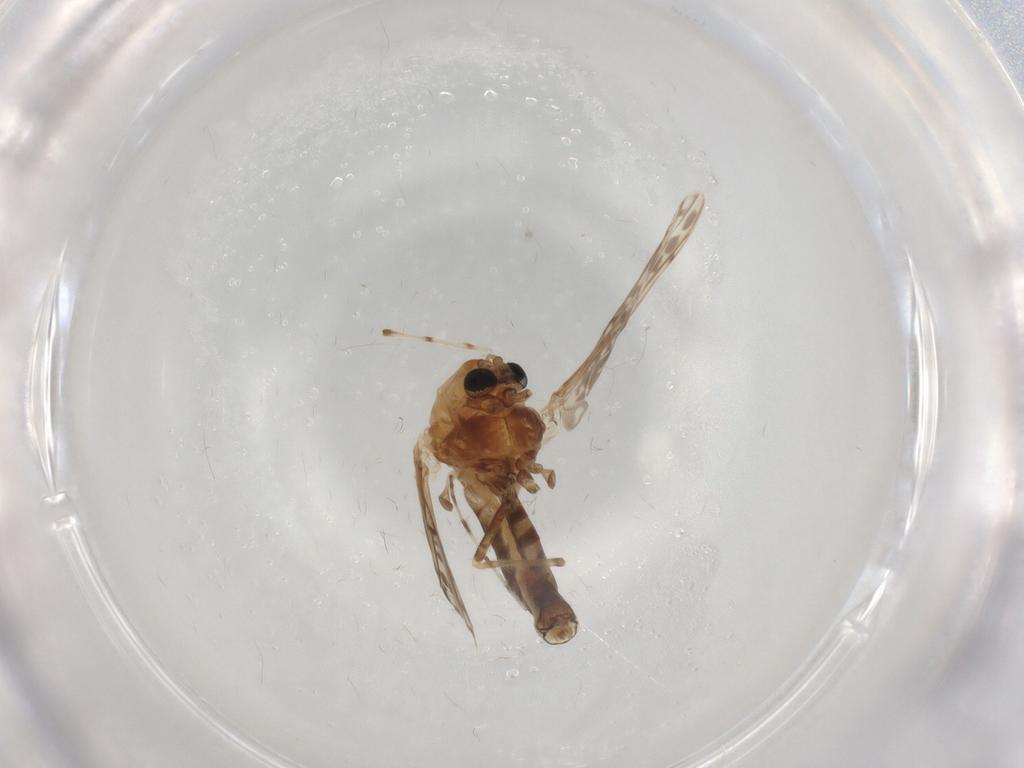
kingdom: Animalia
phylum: Arthropoda
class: Insecta
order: Diptera
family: Chironomidae
